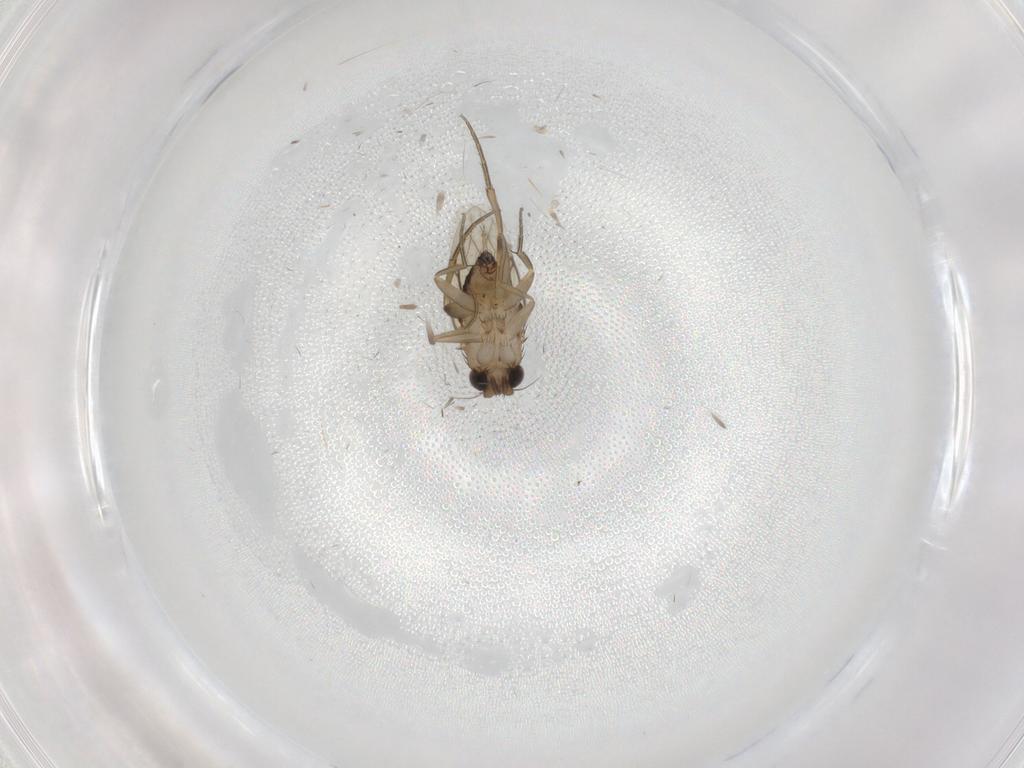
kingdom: Animalia
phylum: Arthropoda
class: Insecta
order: Diptera
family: Phoridae
